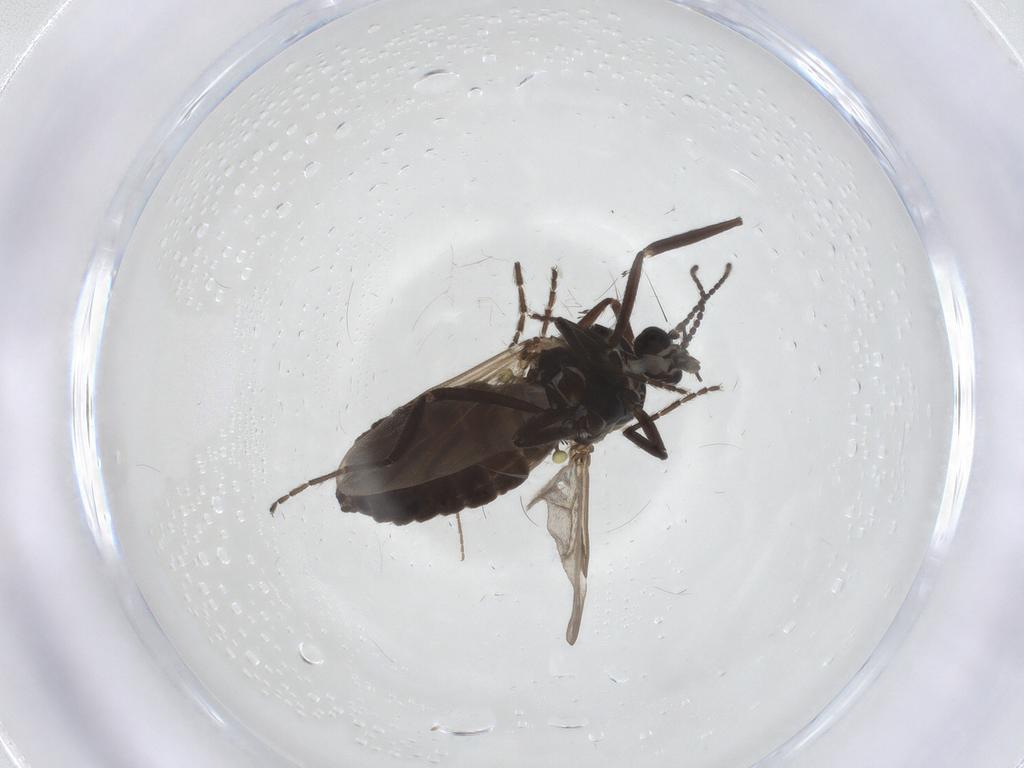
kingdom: Animalia
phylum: Arthropoda
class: Insecta
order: Diptera
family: Ceratopogonidae
